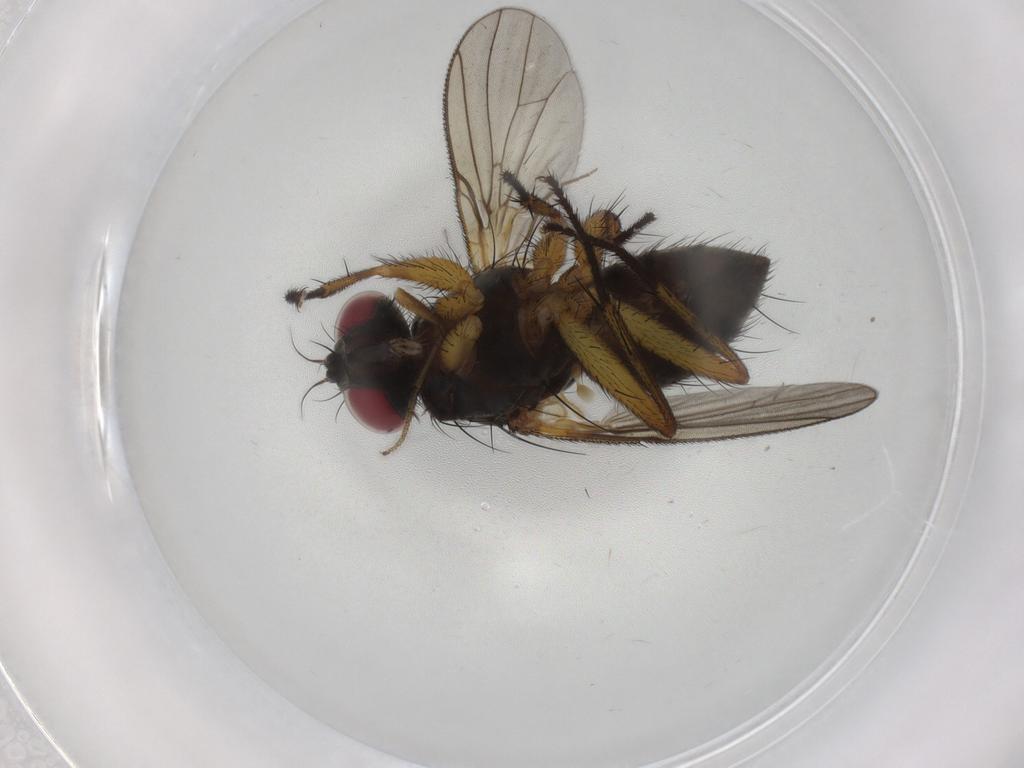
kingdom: Animalia
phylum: Arthropoda
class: Insecta
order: Diptera
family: Muscidae
